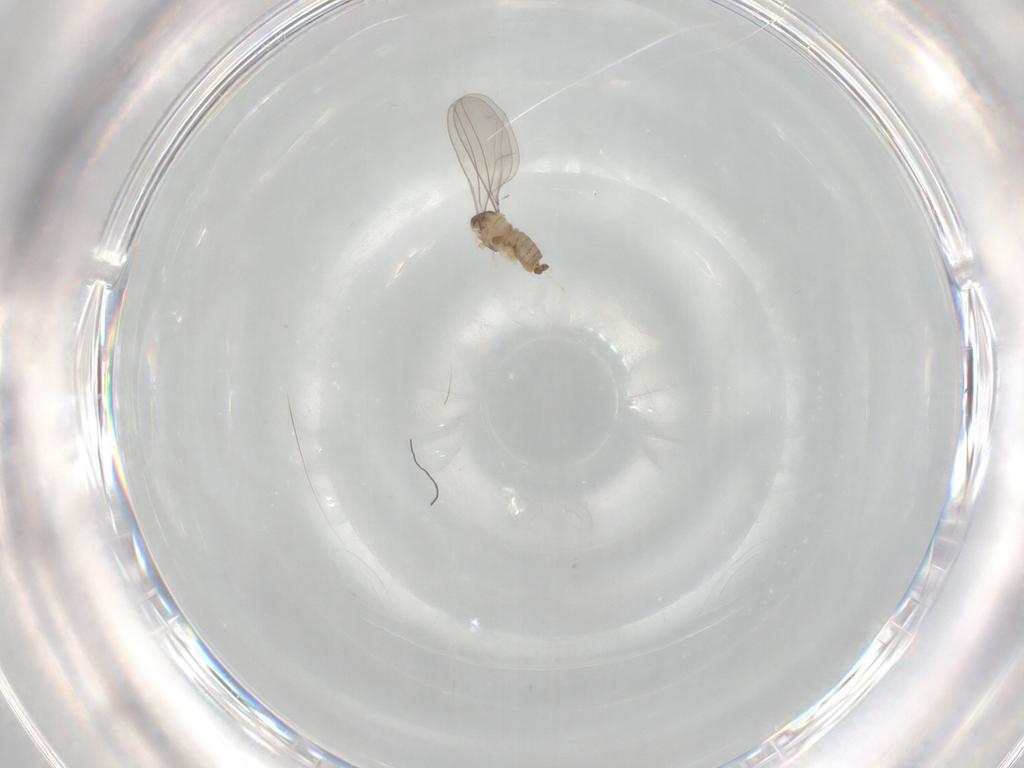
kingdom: Animalia
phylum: Arthropoda
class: Insecta
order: Diptera
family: Cecidomyiidae
